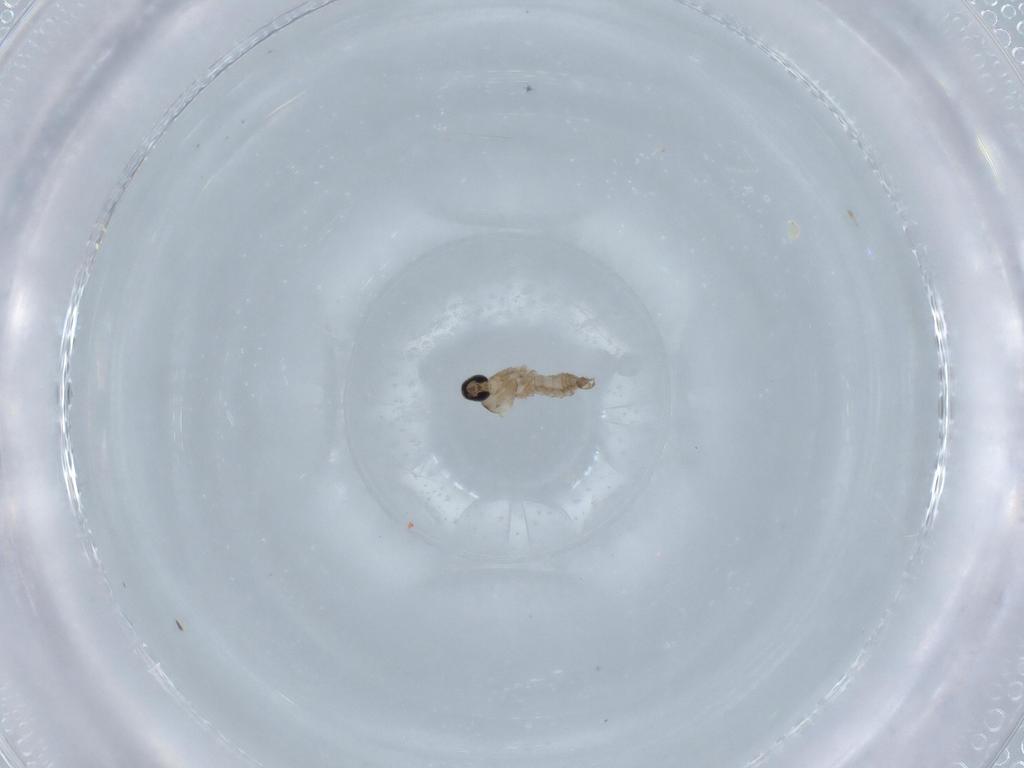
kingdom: Animalia
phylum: Arthropoda
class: Insecta
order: Diptera
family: Cecidomyiidae
